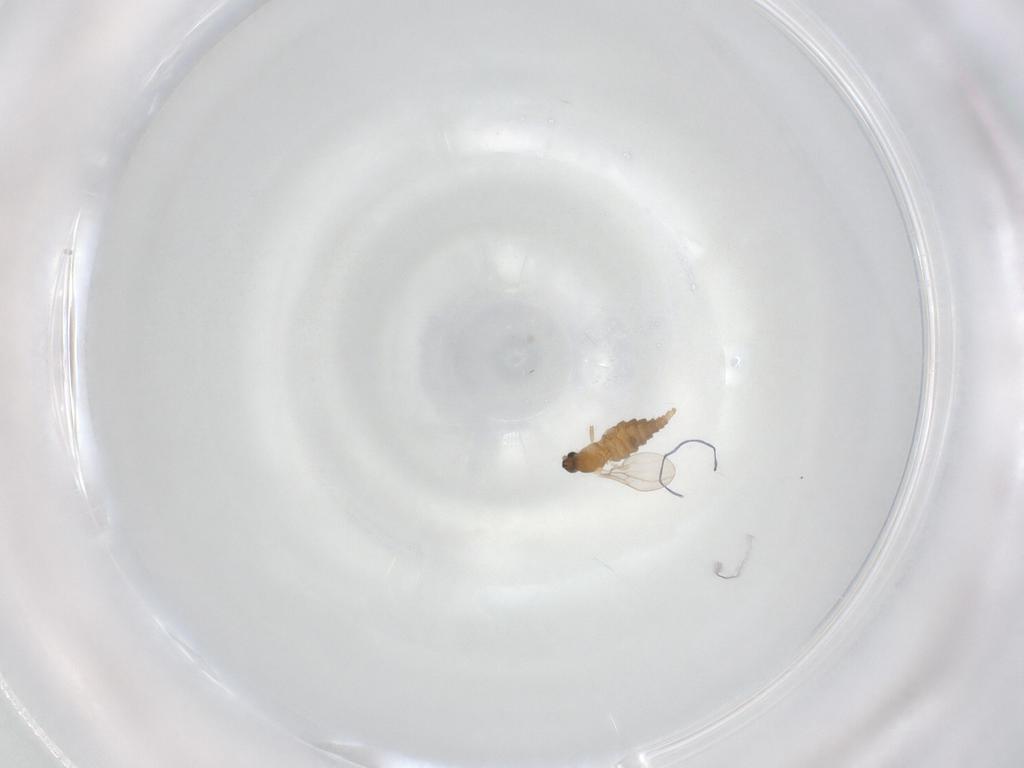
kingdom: Animalia
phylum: Arthropoda
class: Insecta
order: Diptera
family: Cecidomyiidae
